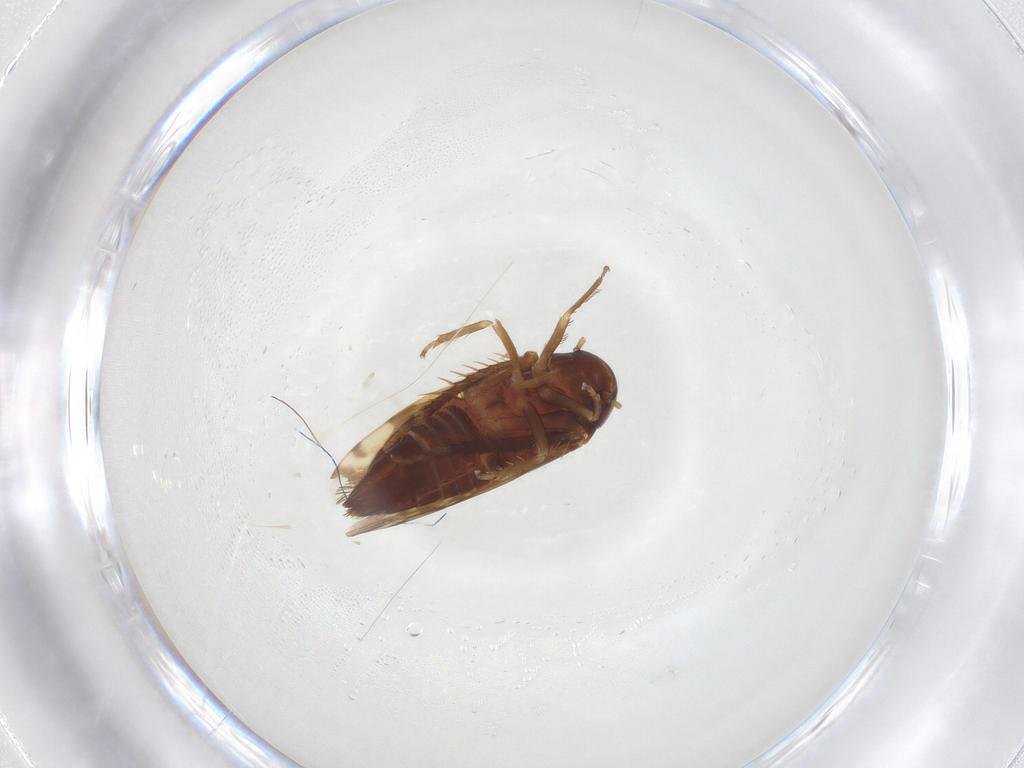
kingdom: Animalia
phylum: Arthropoda
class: Insecta
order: Hemiptera
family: Cicadellidae
